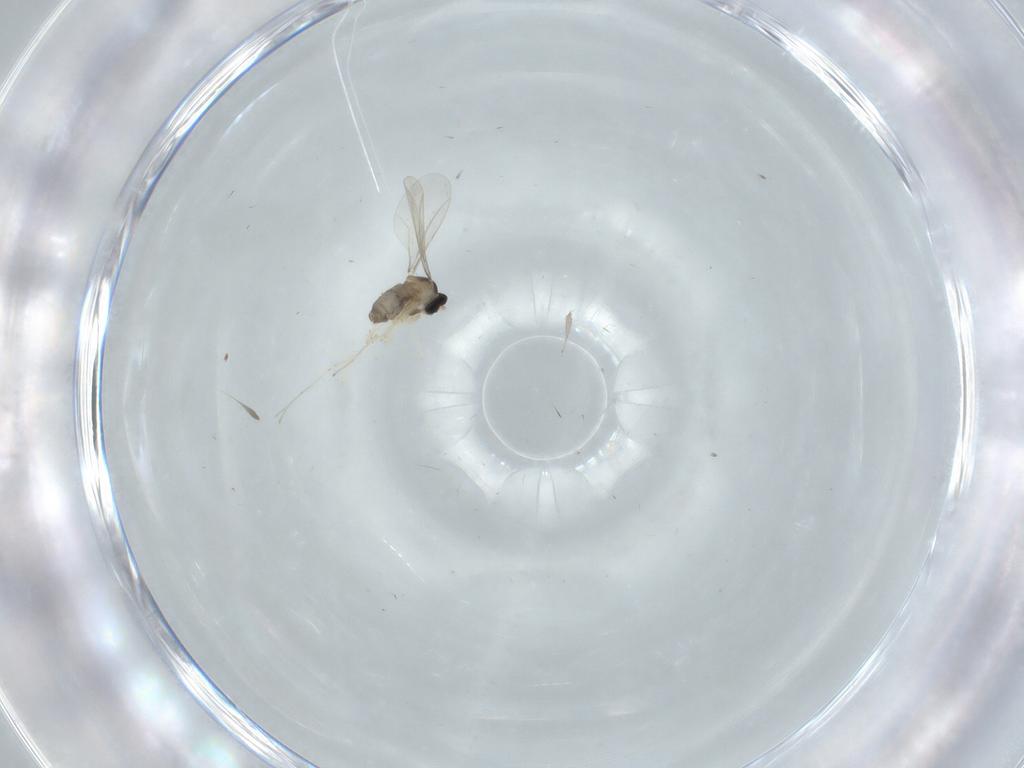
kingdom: Animalia
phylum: Arthropoda
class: Insecta
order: Diptera
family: Cecidomyiidae
